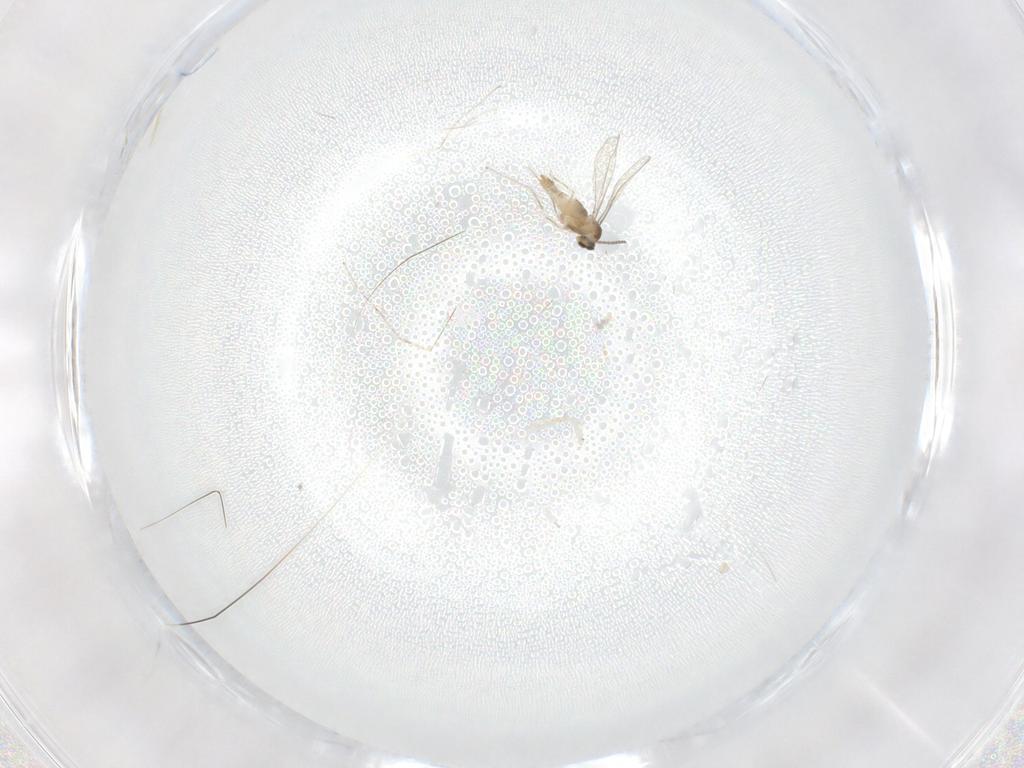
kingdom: Animalia
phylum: Arthropoda
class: Insecta
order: Diptera
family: Cecidomyiidae
